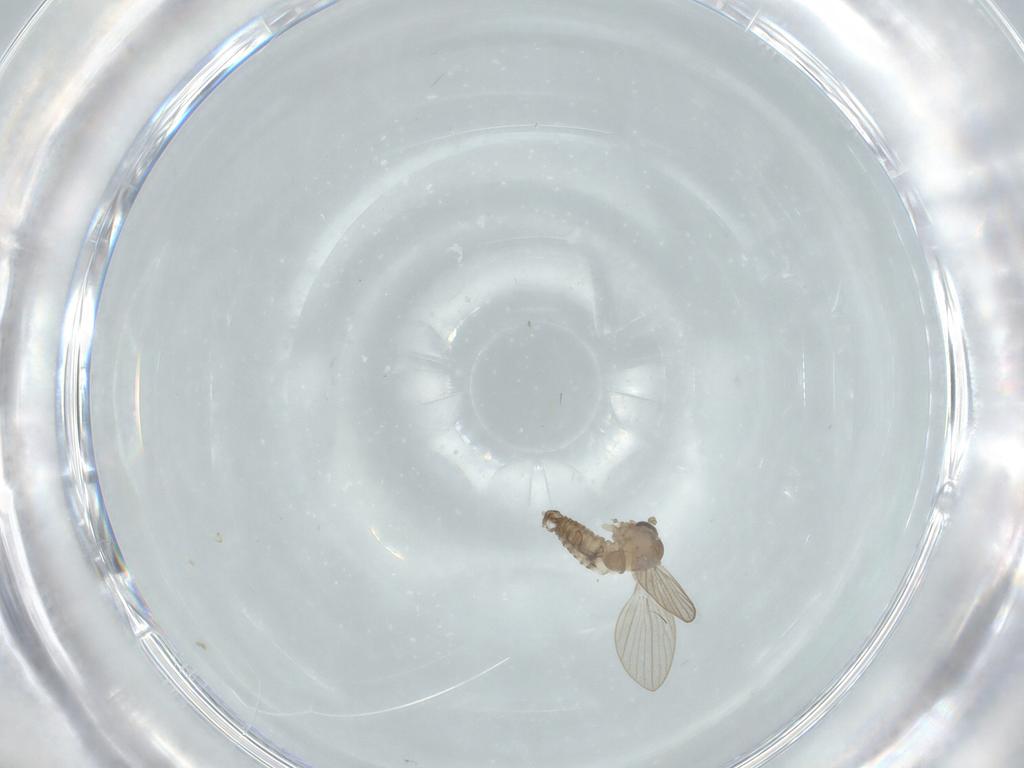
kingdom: Animalia
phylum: Arthropoda
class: Insecta
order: Diptera
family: Psychodidae
